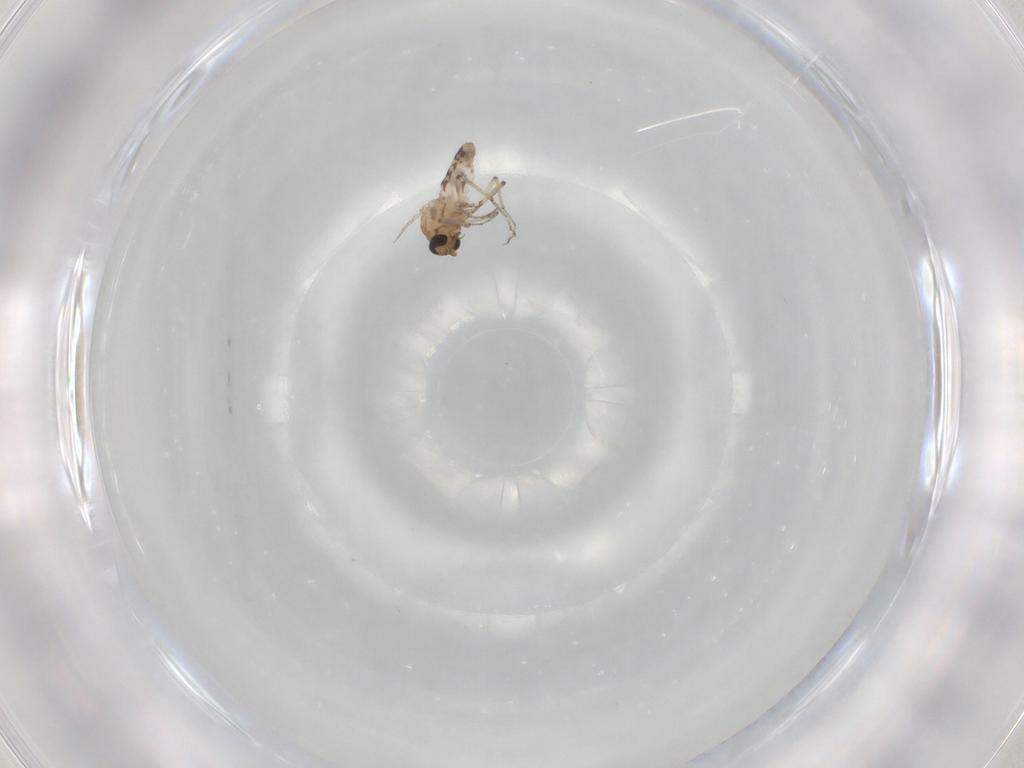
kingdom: Animalia
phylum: Arthropoda
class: Insecta
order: Diptera
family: Ceratopogonidae
